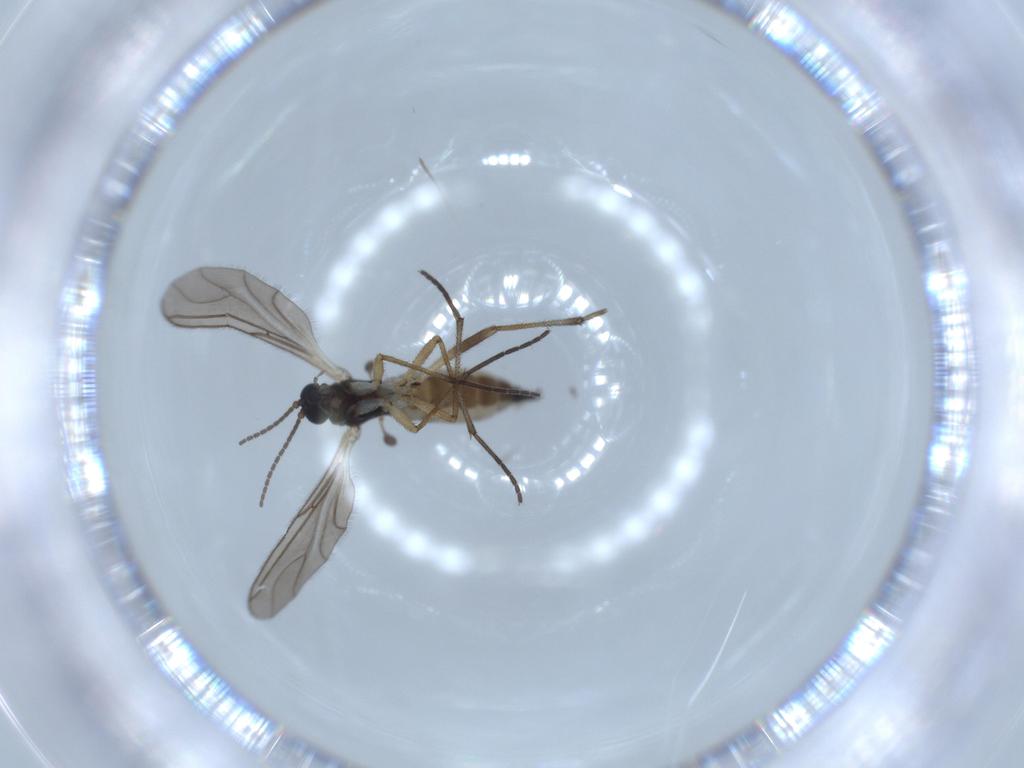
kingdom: Animalia
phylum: Arthropoda
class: Insecta
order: Diptera
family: Sciaridae
